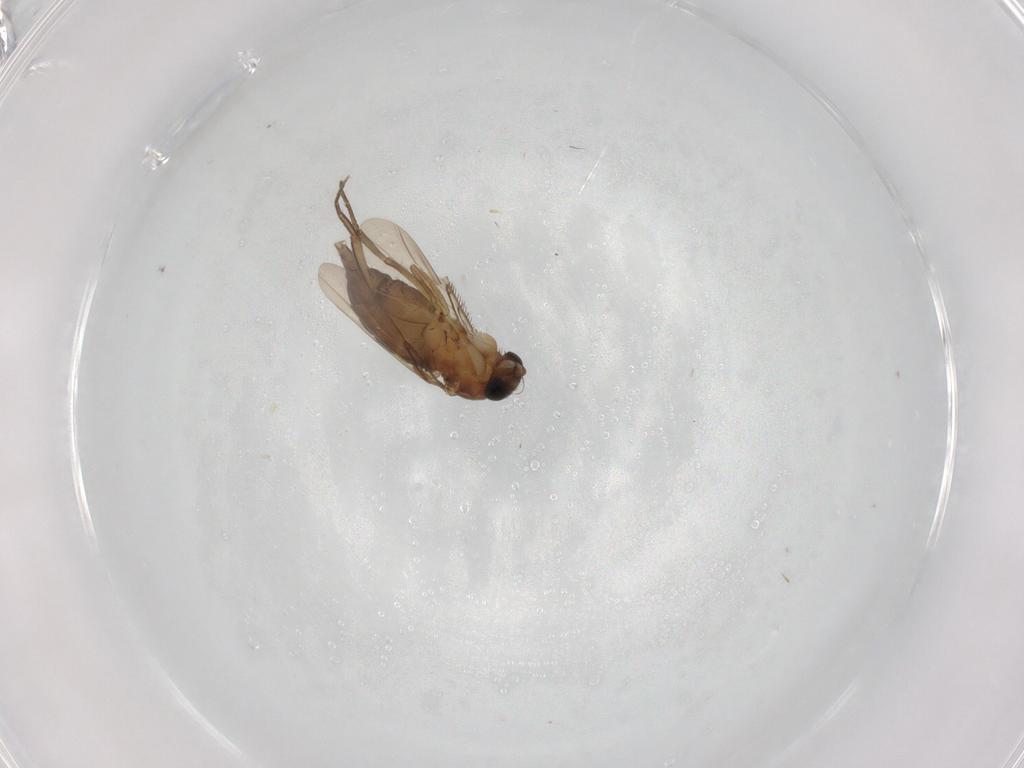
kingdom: Animalia
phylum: Arthropoda
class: Insecta
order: Diptera
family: Phoridae
